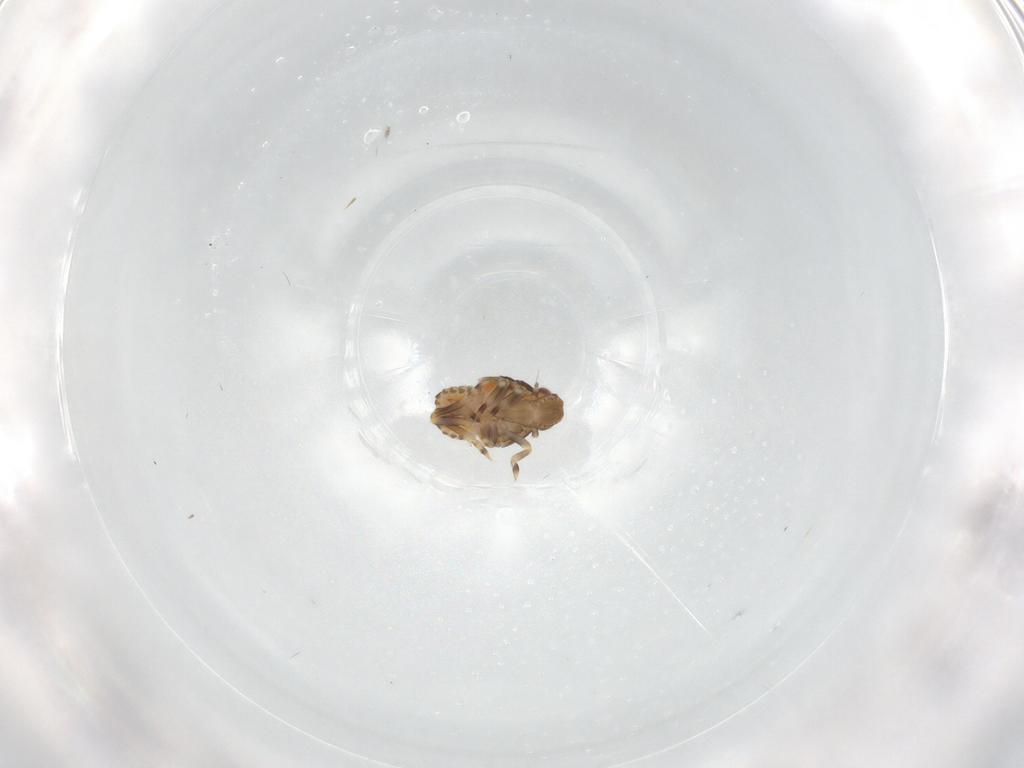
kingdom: Animalia
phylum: Arthropoda
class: Insecta
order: Hemiptera
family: Flatidae
